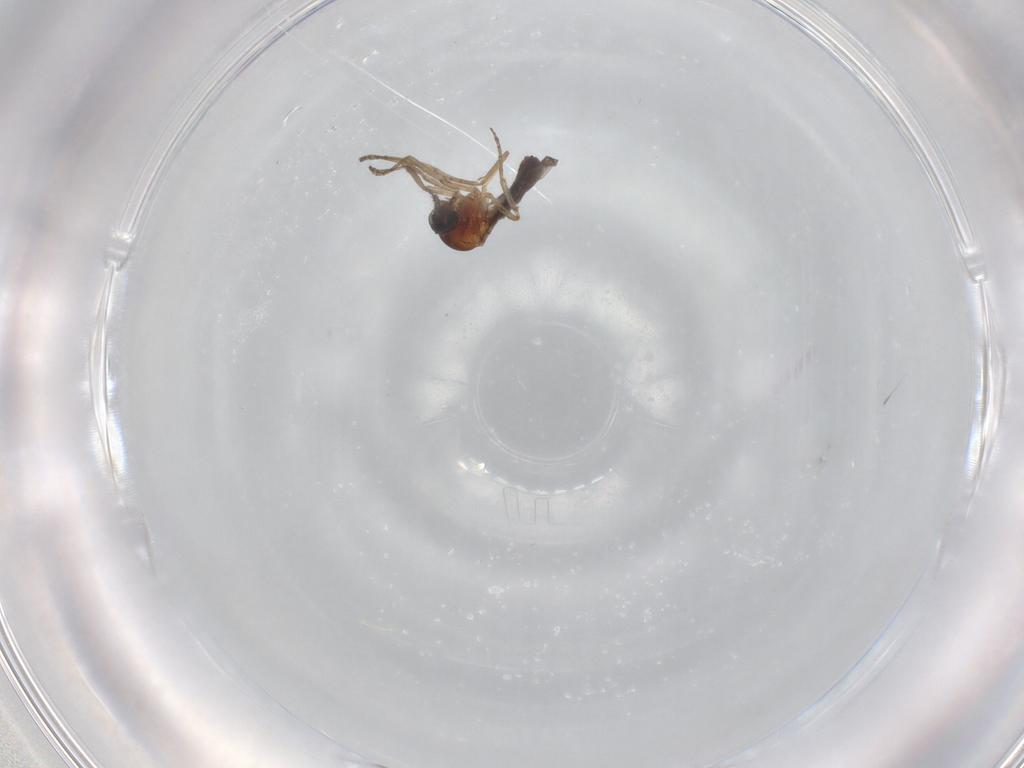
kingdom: Animalia
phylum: Arthropoda
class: Insecta
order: Diptera
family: Ceratopogonidae
